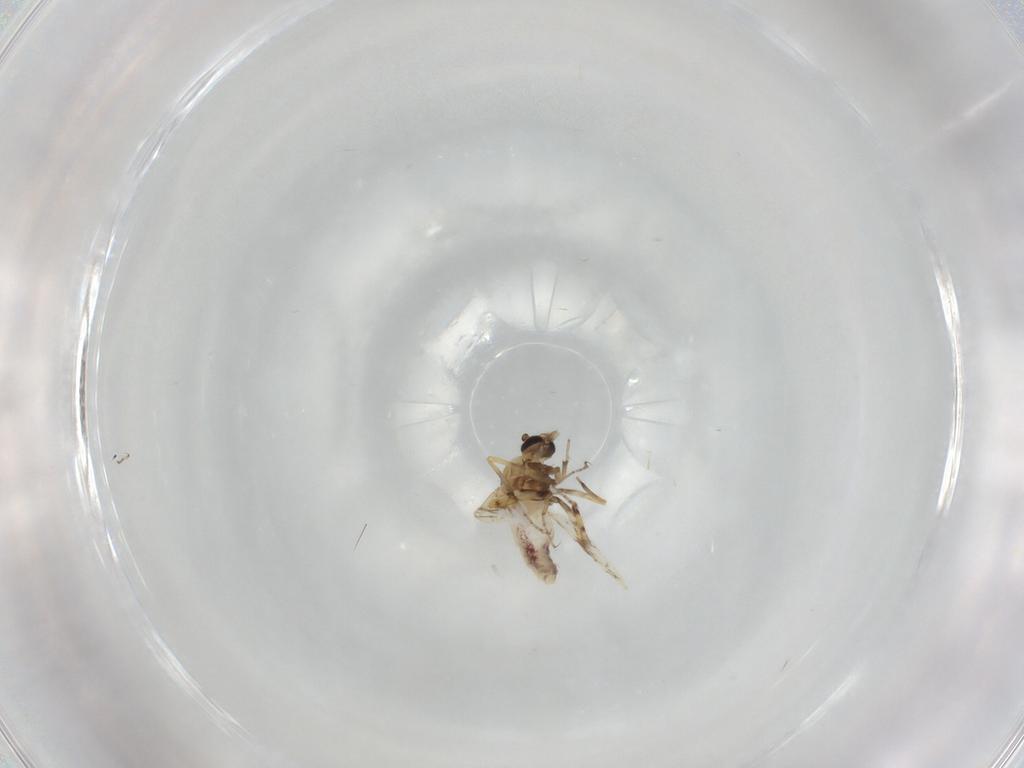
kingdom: Animalia
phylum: Arthropoda
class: Insecta
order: Diptera
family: Ceratopogonidae
